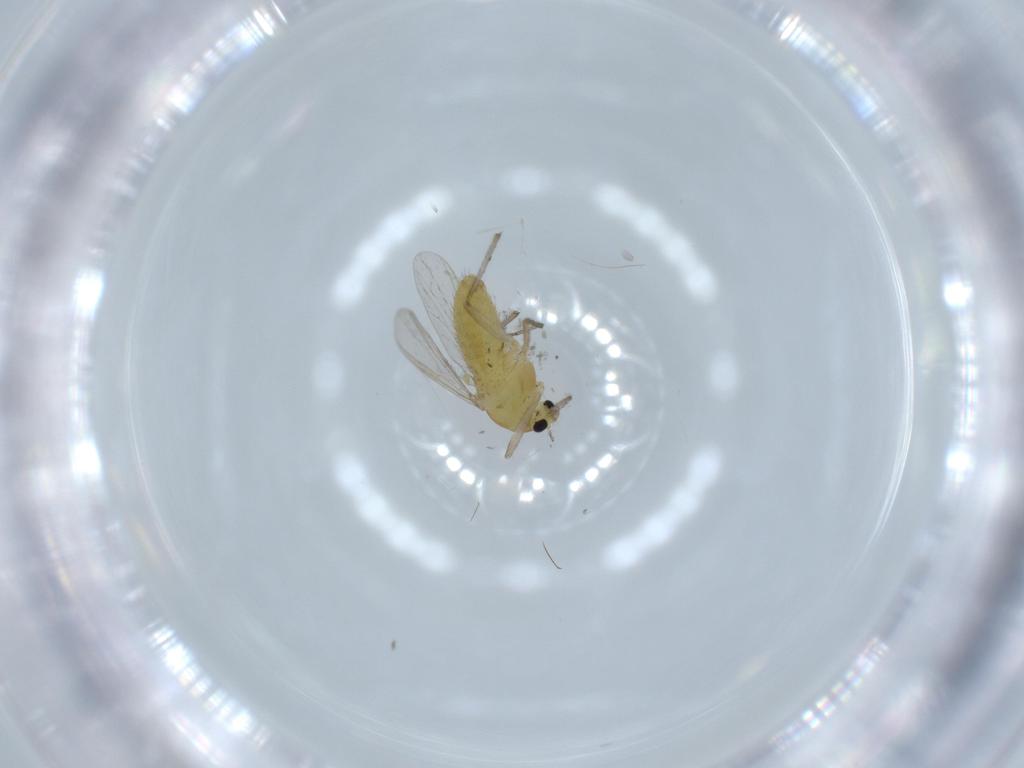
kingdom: Animalia
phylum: Arthropoda
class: Insecta
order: Diptera
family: Chironomidae
